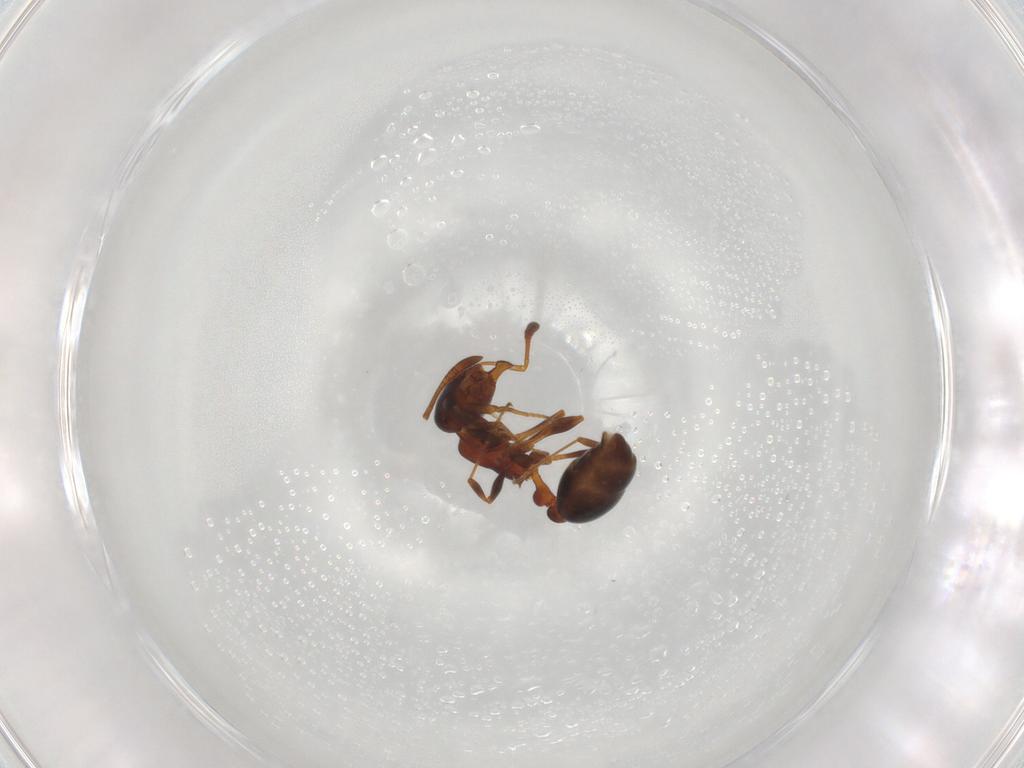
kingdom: Animalia
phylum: Arthropoda
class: Insecta
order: Hymenoptera
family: Formicidae
